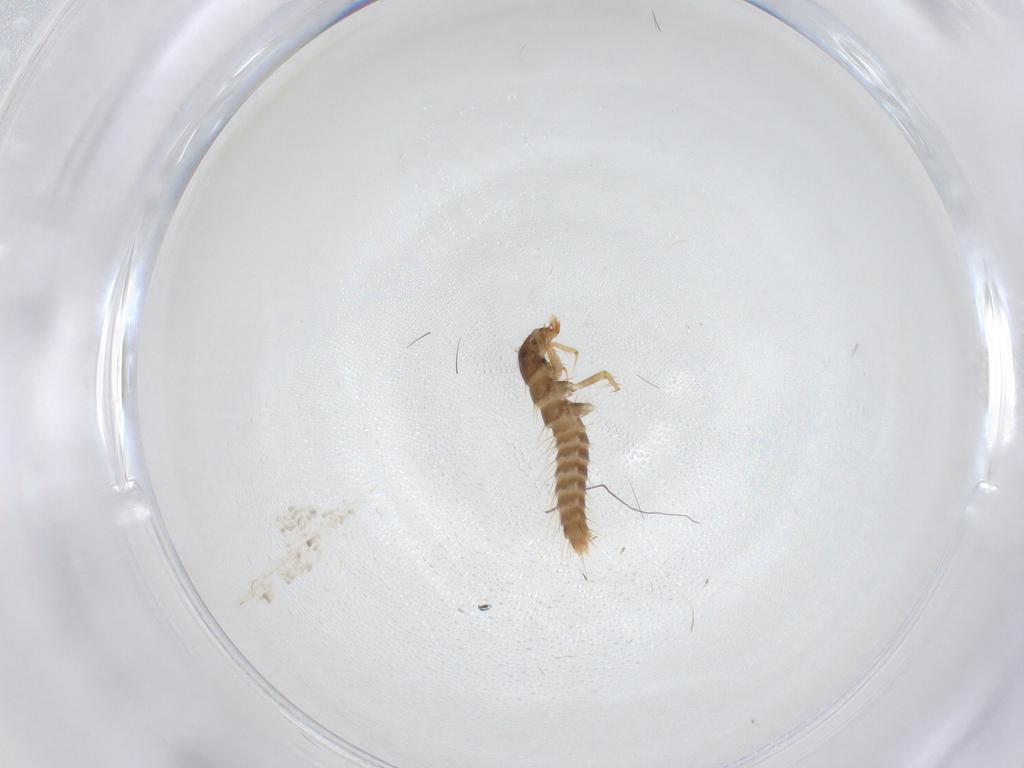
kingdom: Animalia
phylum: Arthropoda
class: Insecta
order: Coleoptera
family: Staphylinidae
